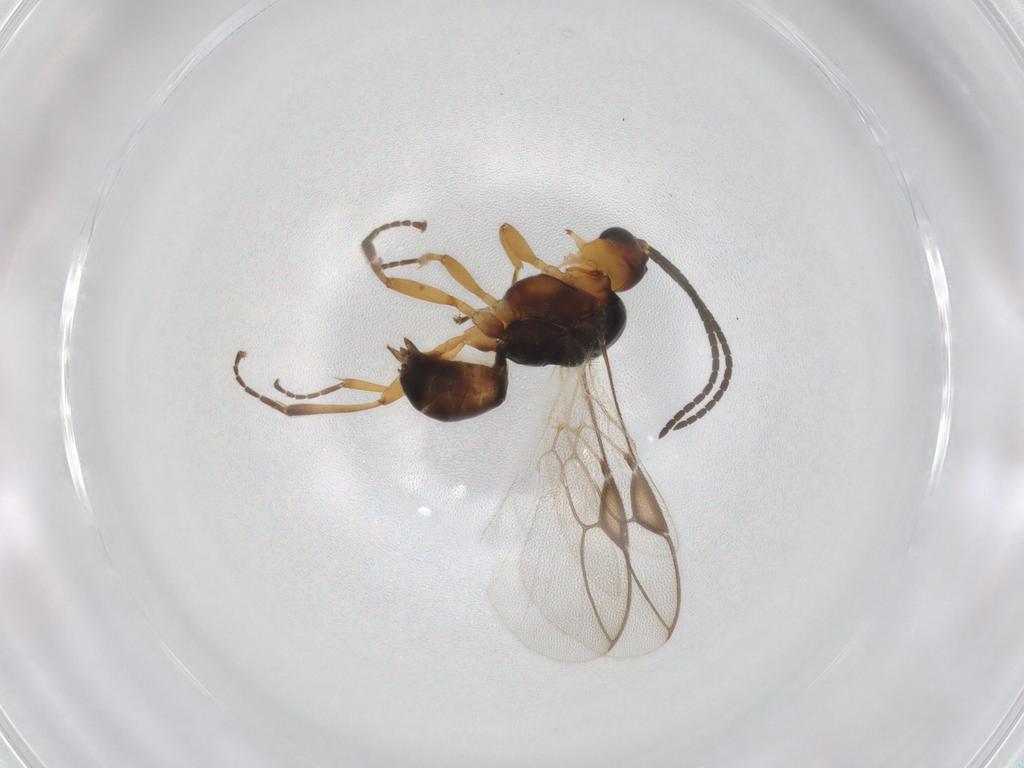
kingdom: Animalia
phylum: Arthropoda
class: Insecta
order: Hymenoptera
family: Braconidae
